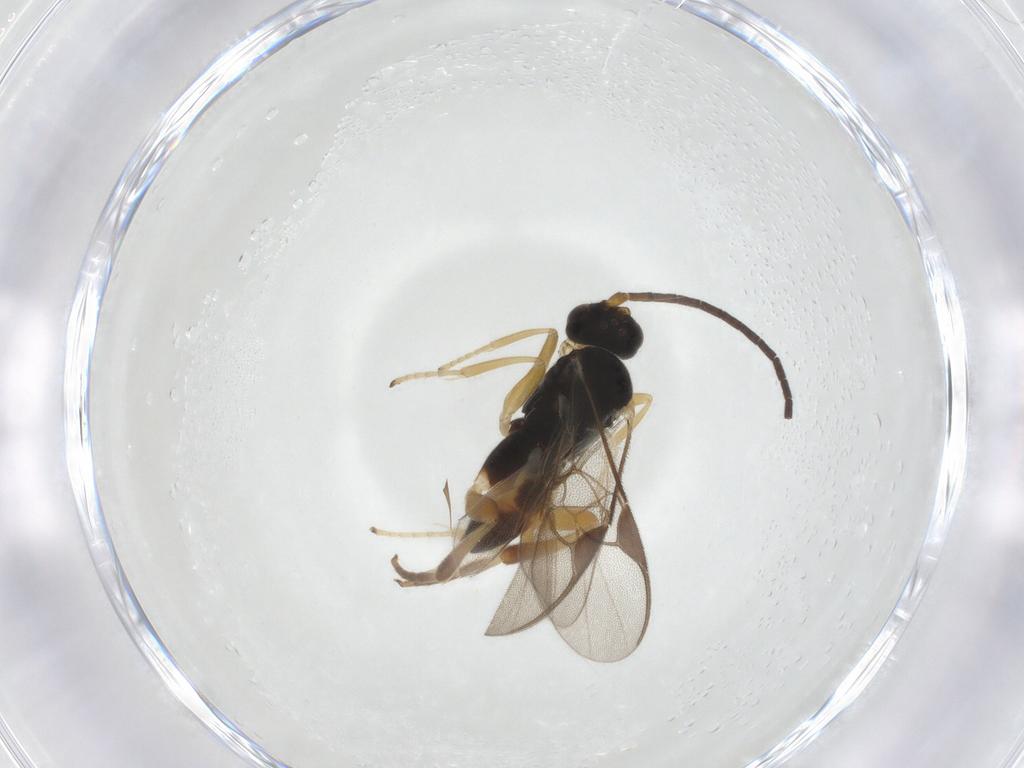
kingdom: Animalia
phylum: Arthropoda
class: Insecta
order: Hymenoptera
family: Braconidae
